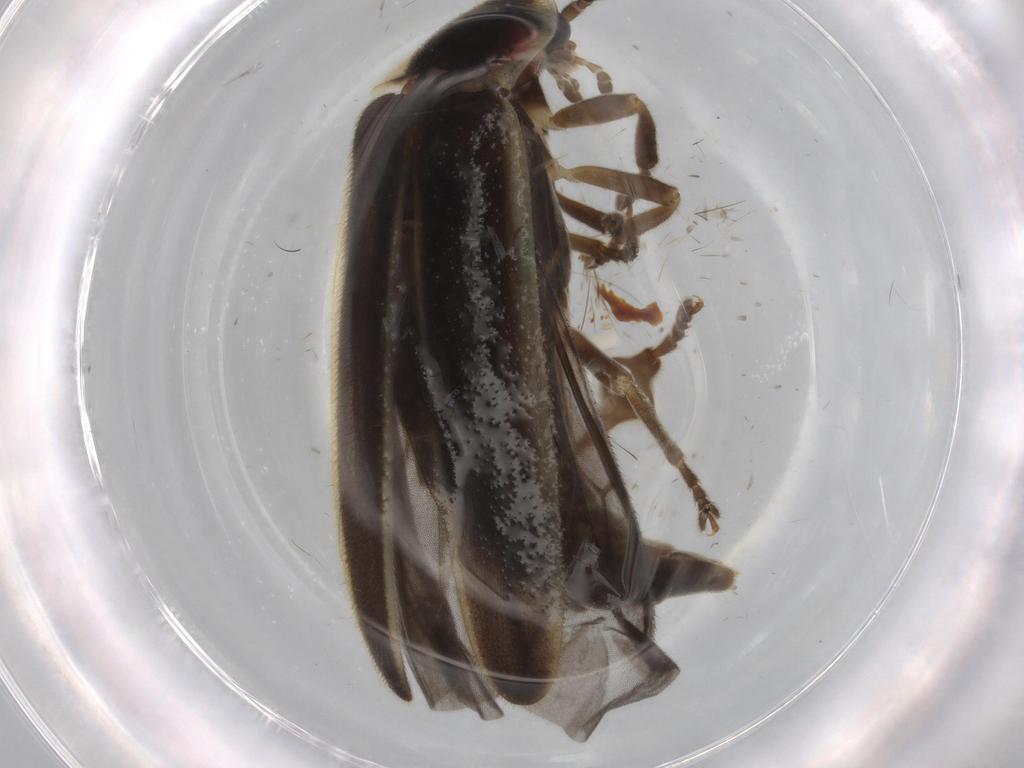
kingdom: Animalia
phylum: Arthropoda
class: Insecta
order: Coleoptera
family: Lampyridae
